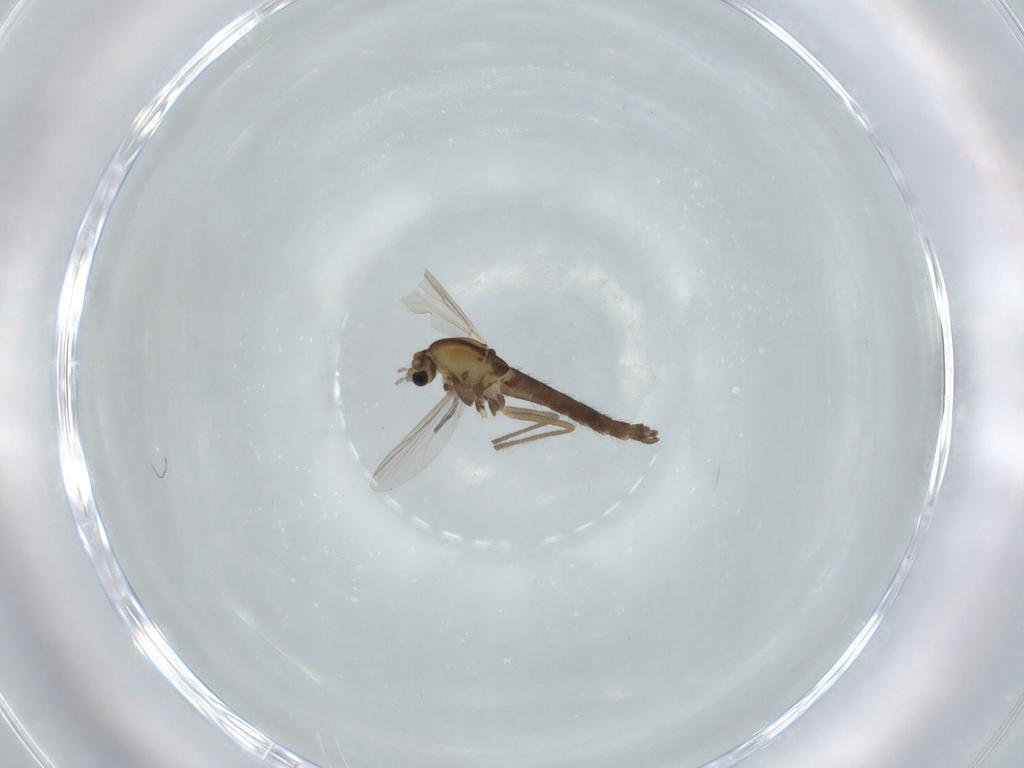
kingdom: Animalia
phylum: Arthropoda
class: Insecta
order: Diptera
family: Chironomidae
